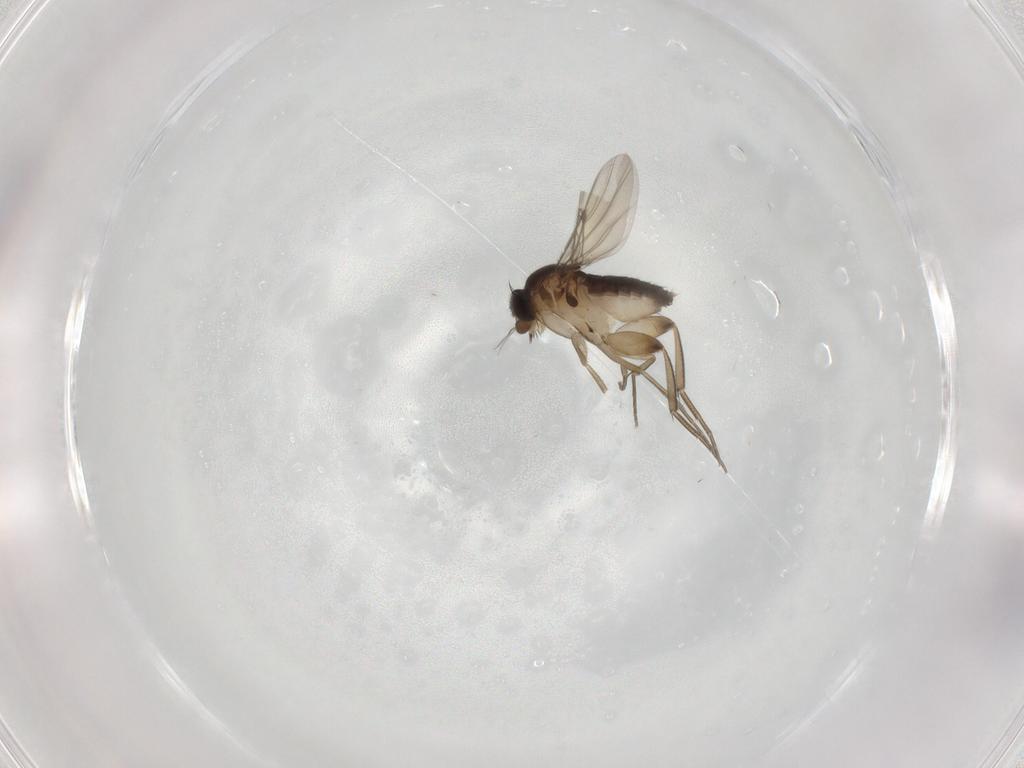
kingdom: Animalia
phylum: Arthropoda
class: Insecta
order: Diptera
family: Phoridae
